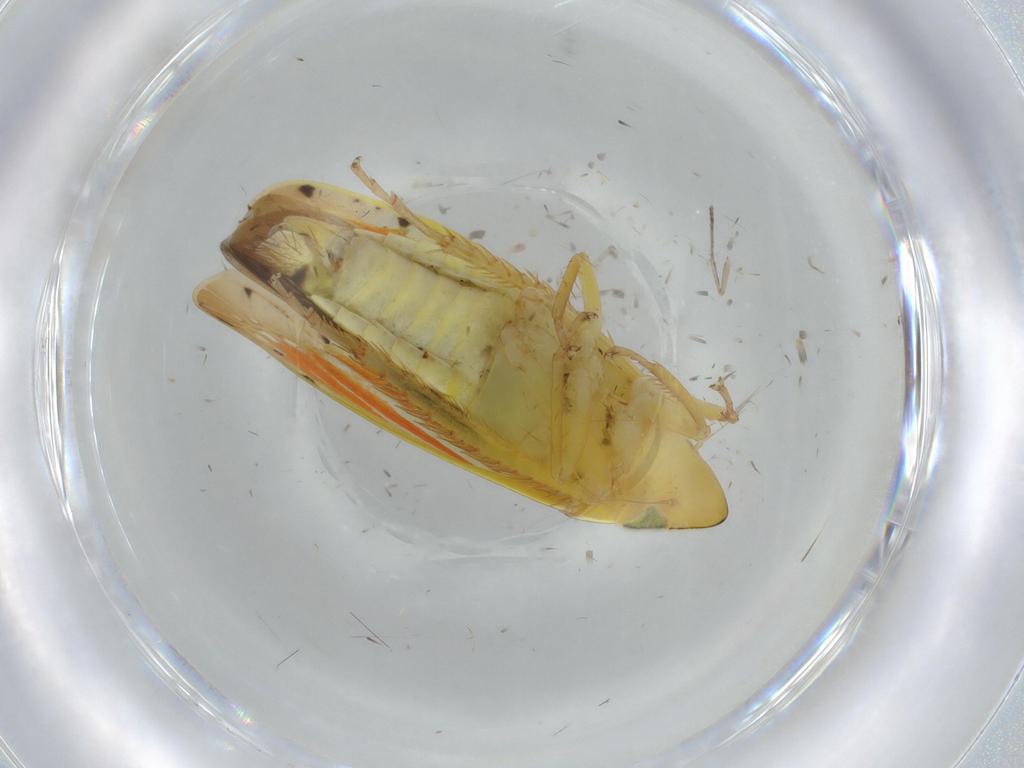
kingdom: Animalia
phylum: Arthropoda
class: Insecta
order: Hemiptera
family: Cicadellidae
